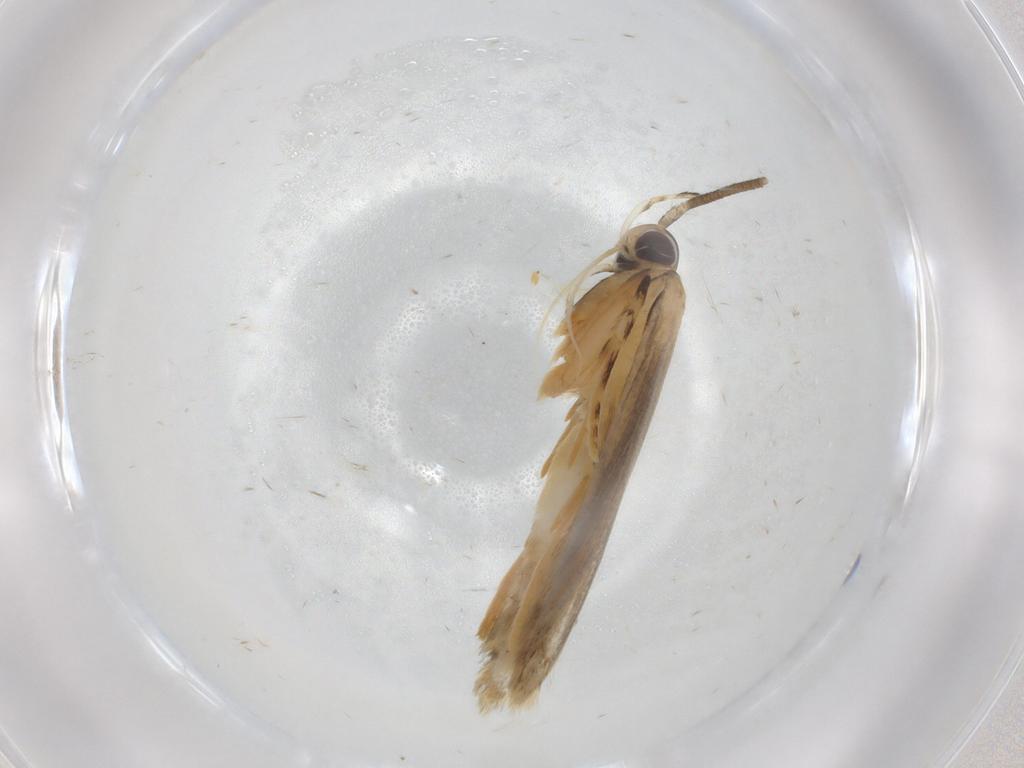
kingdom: Animalia
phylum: Arthropoda
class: Insecta
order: Lepidoptera
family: Autostichidae
